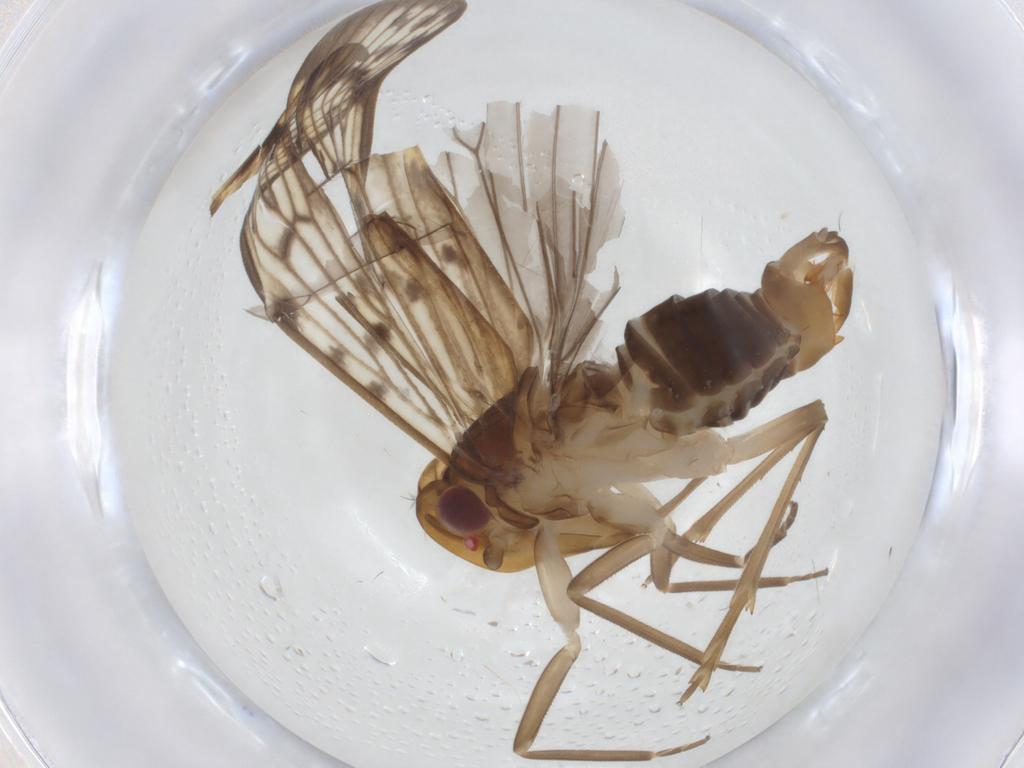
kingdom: Animalia
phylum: Arthropoda
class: Insecta
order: Hemiptera
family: Cixiidae
